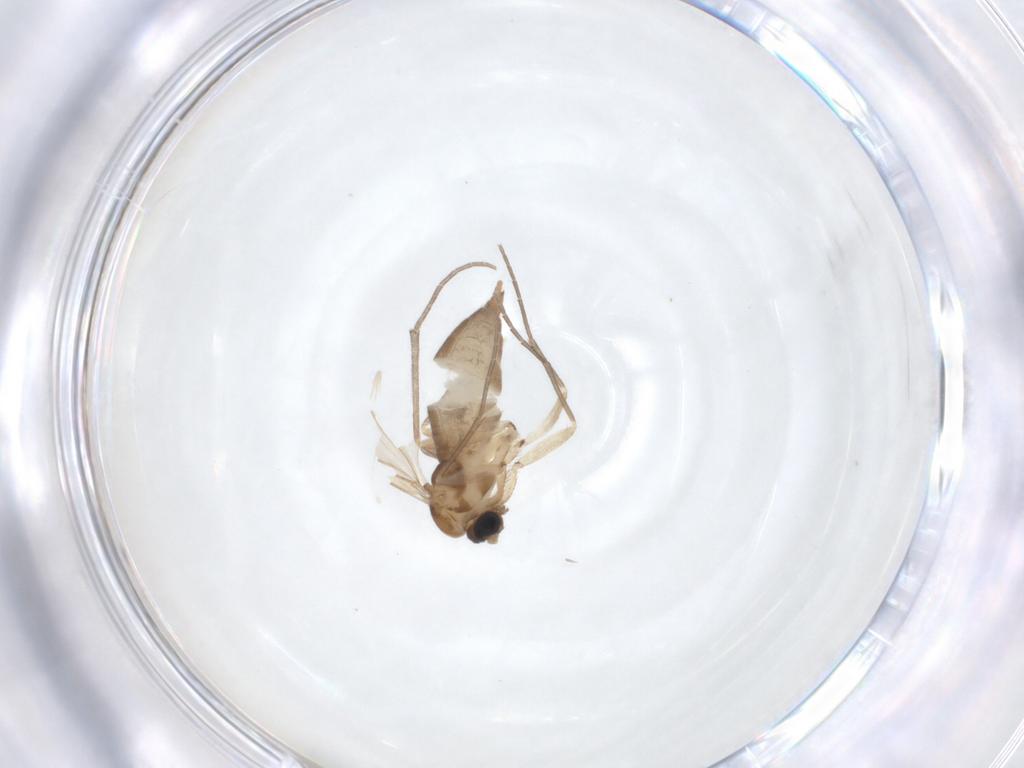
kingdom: Animalia
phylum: Arthropoda
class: Insecta
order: Diptera
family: Sciaridae
